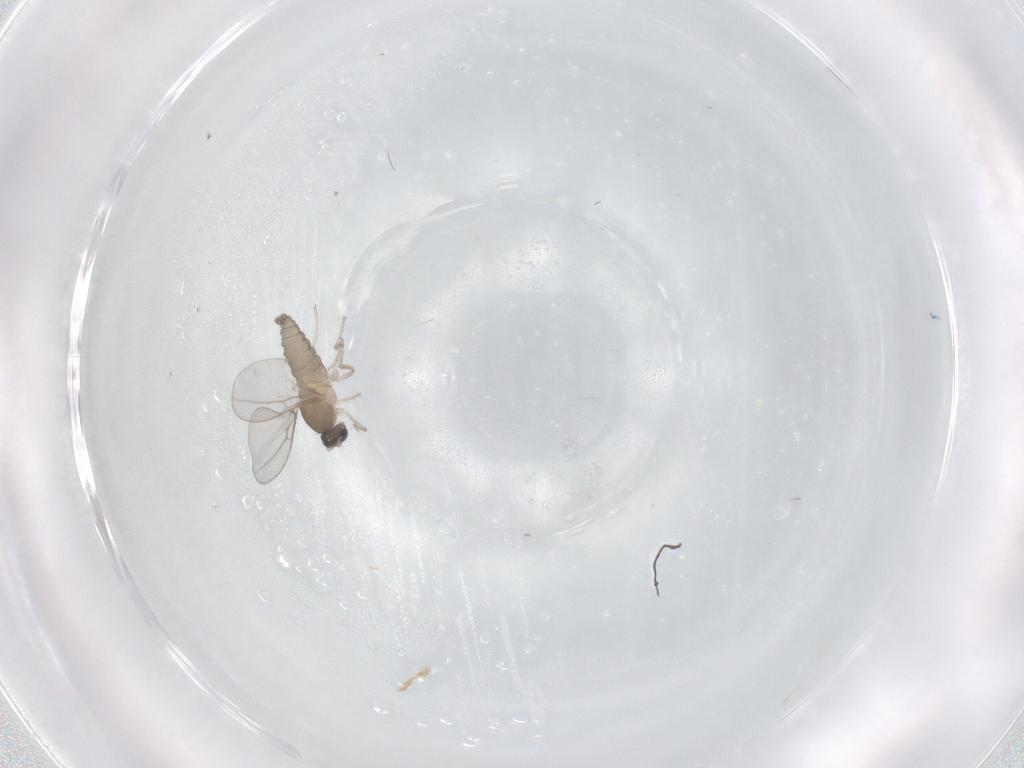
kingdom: Animalia
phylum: Arthropoda
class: Insecta
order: Diptera
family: Cecidomyiidae
